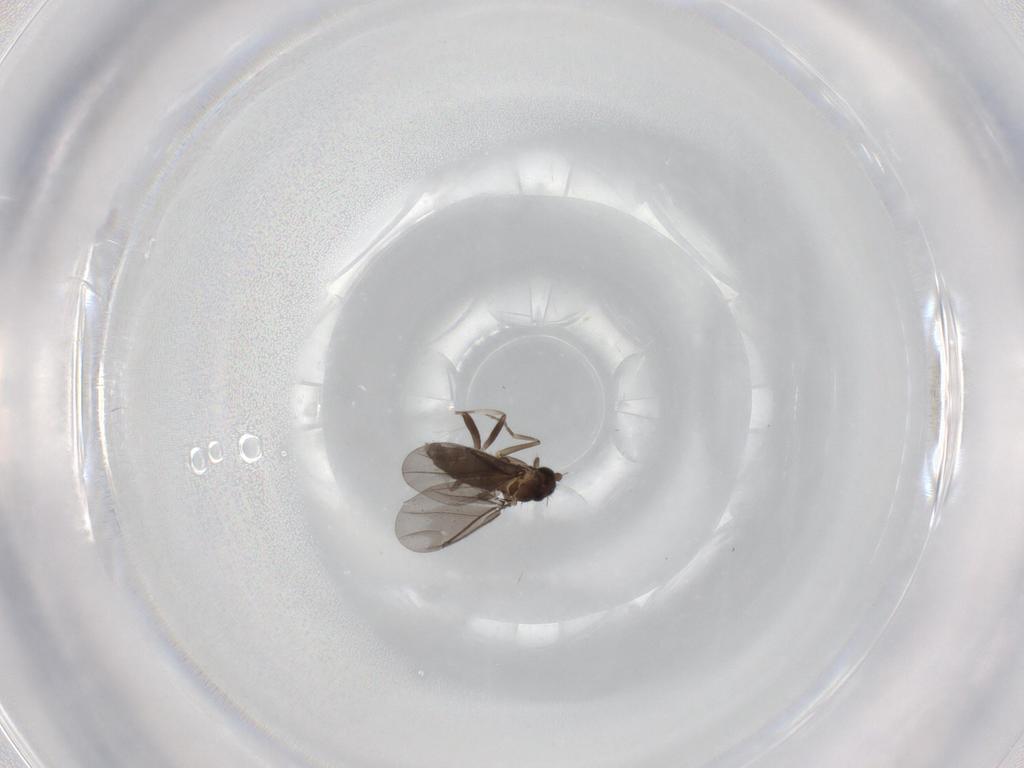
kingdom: Animalia
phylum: Arthropoda
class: Insecta
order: Diptera
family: Phoridae
